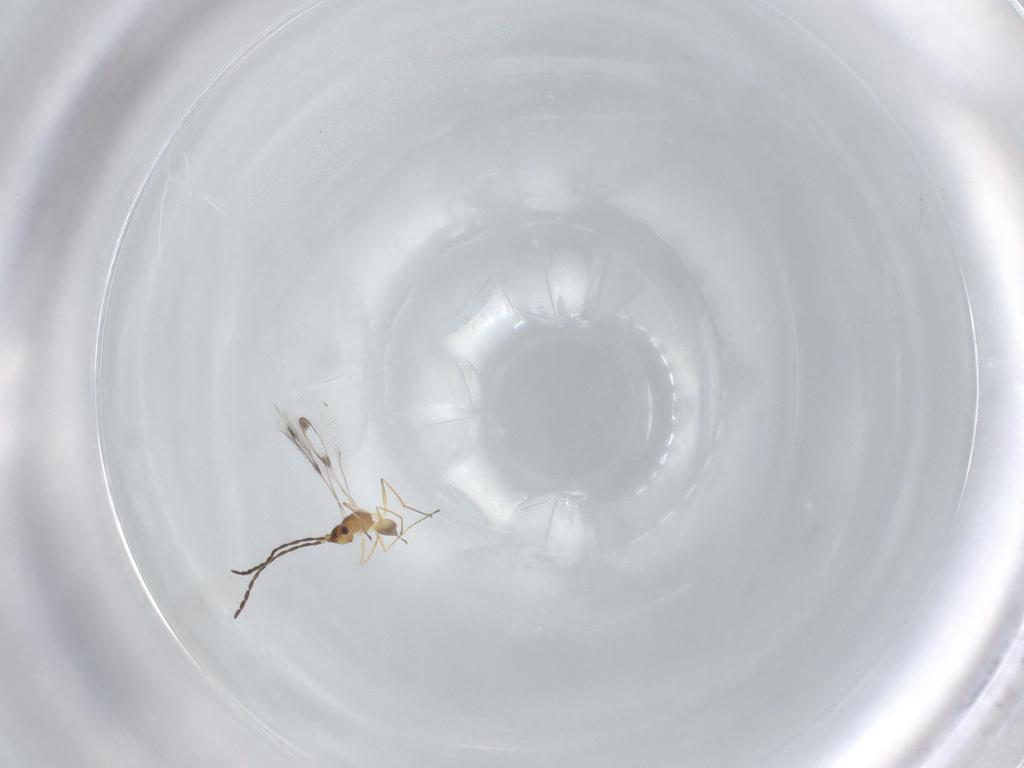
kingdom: Animalia
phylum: Arthropoda
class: Insecta
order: Hymenoptera
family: Mymaridae
